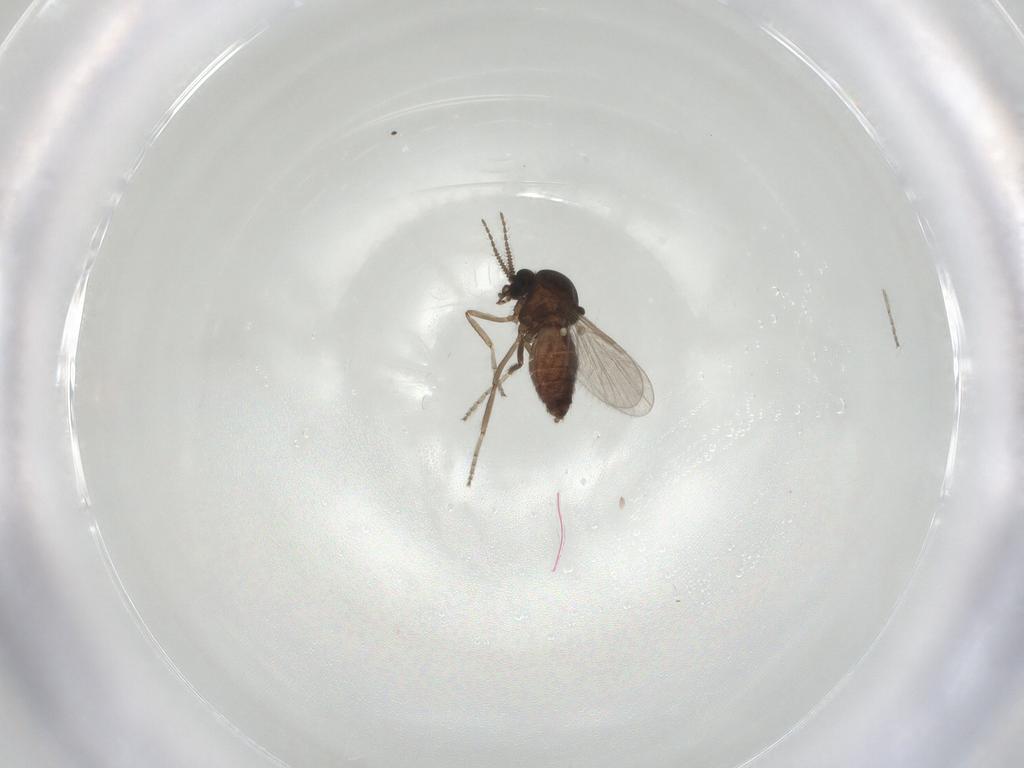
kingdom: Animalia
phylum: Arthropoda
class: Insecta
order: Diptera
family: Ceratopogonidae
